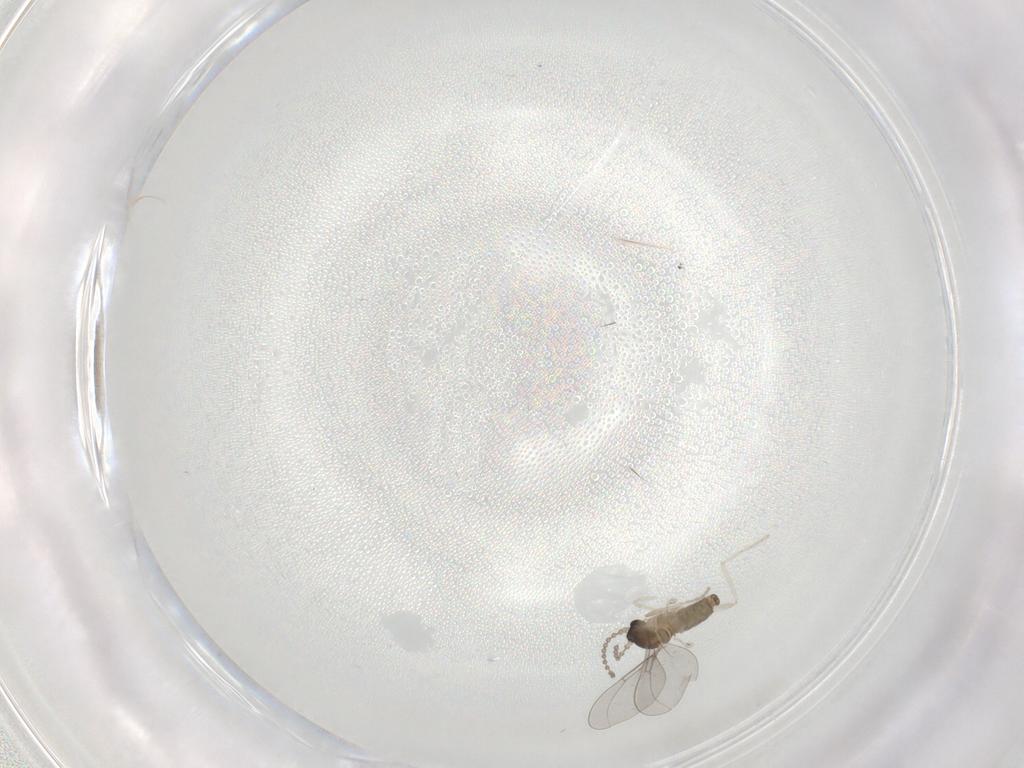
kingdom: Animalia
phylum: Arthropoda
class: Insecta
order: Diptera
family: Cecidomyiidae
